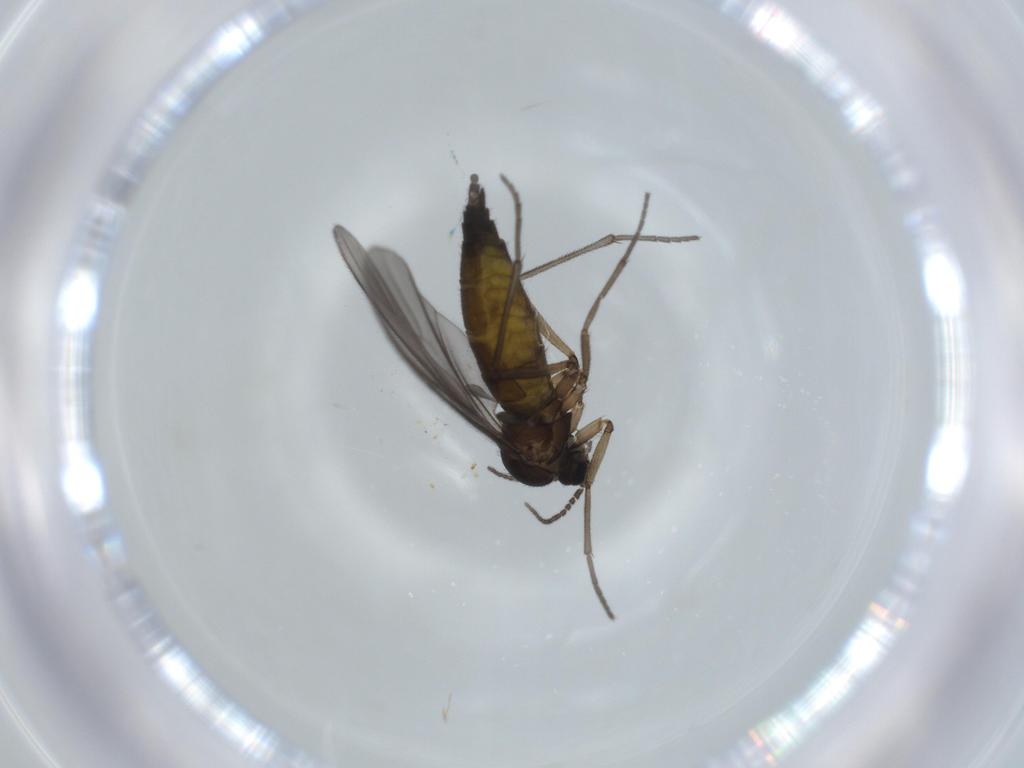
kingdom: Animalia
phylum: Arthropoda
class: Insecta
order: Diptera
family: Sciaridae
